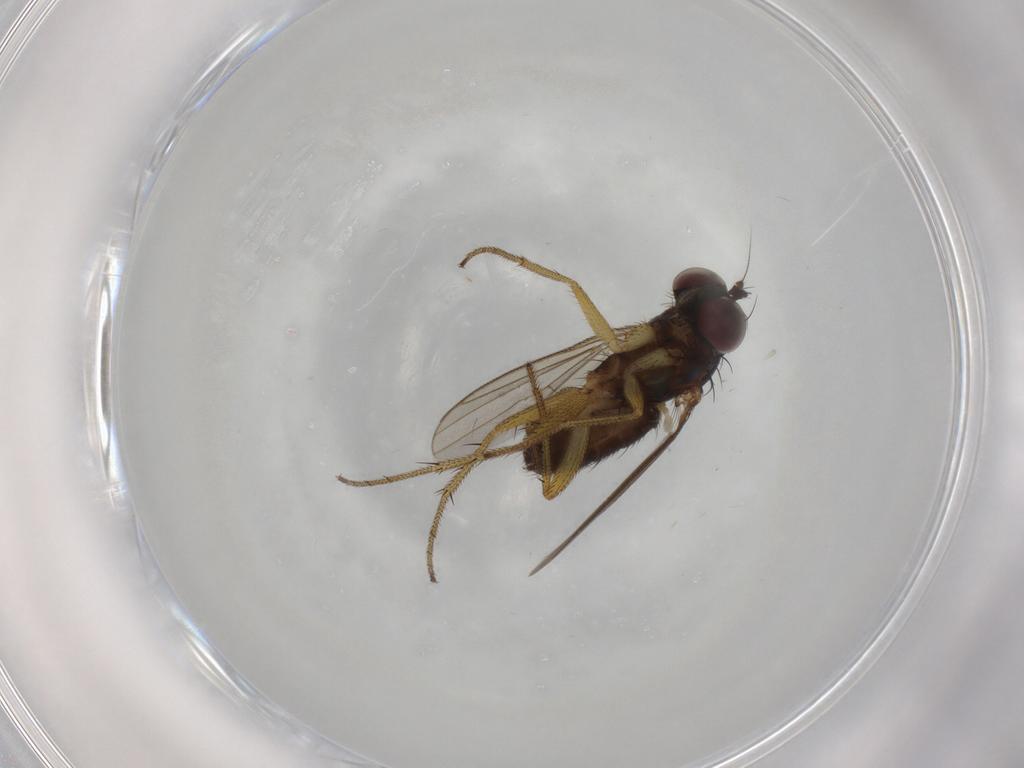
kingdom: Animalia
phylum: Arthropoda
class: Insecta
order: Diptera
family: Dolichopodidae
